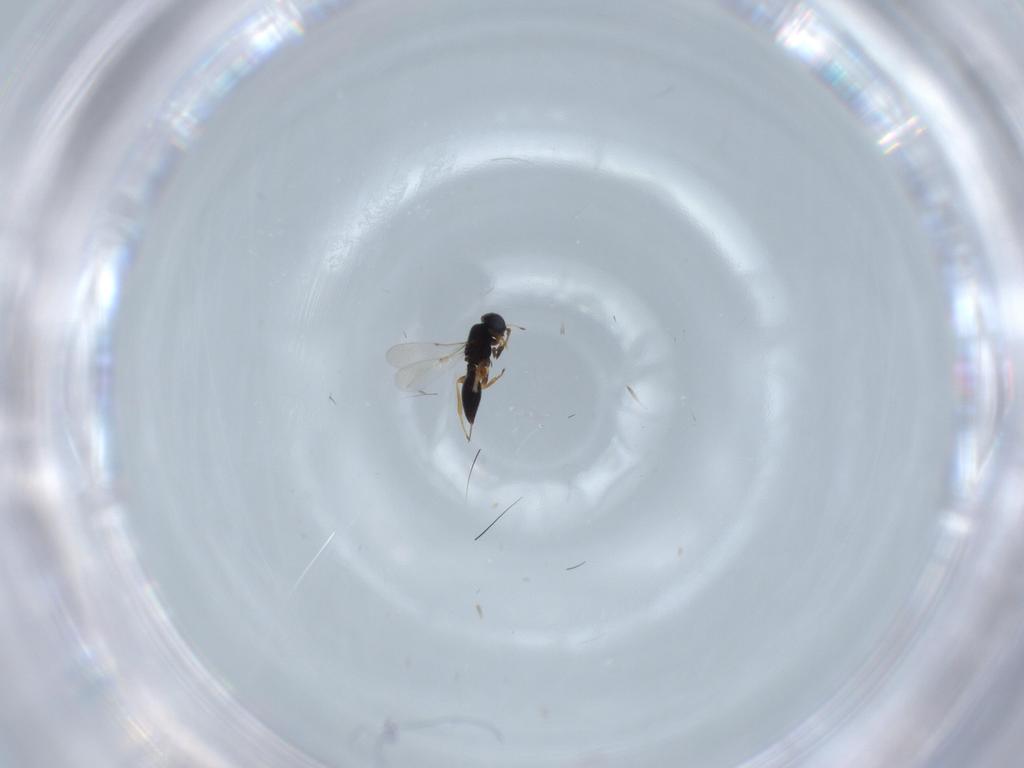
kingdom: Animalia
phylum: Arthropoda
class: Insecta
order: Hymenoptera
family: Platygastridae
